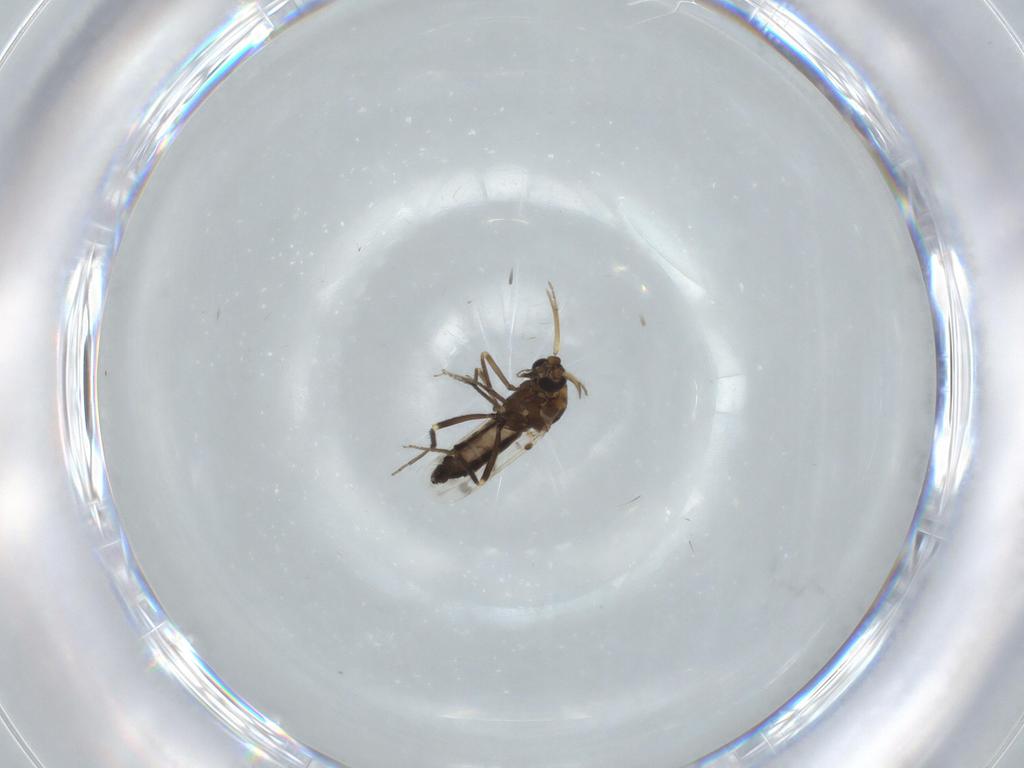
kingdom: Animalia
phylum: Arthropoda
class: Insecta
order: Diptera
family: Ceratopogonidae
